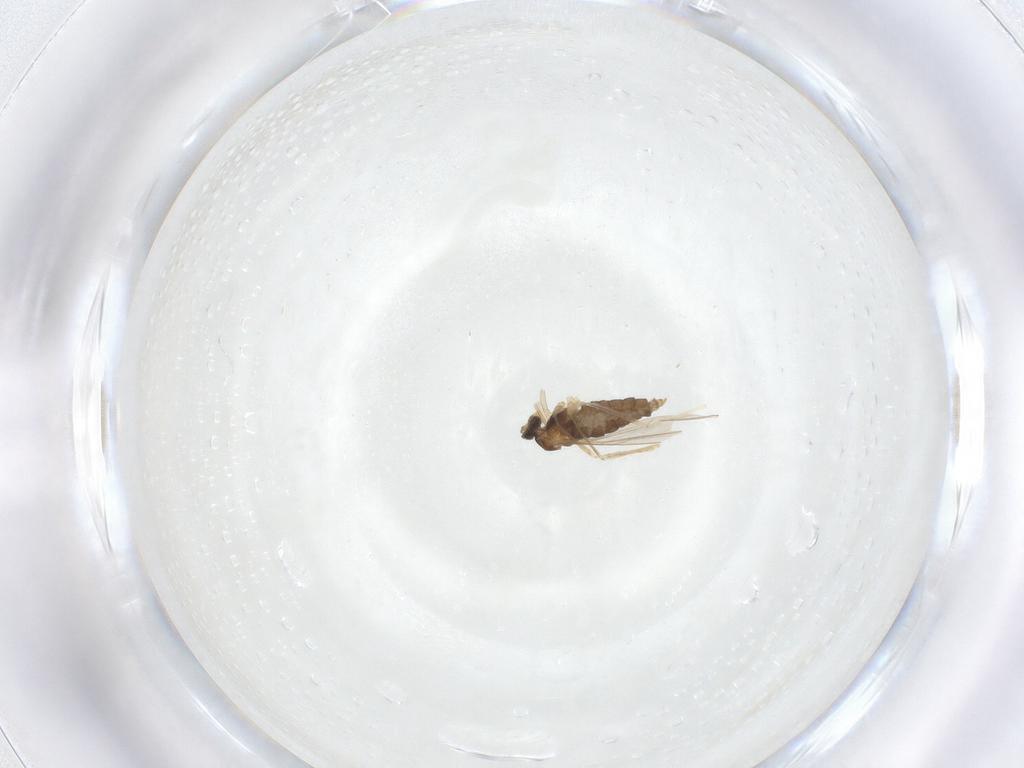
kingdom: Animalia
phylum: Arthropoda
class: Insecta
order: Diptera
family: Cecidomyiidae
